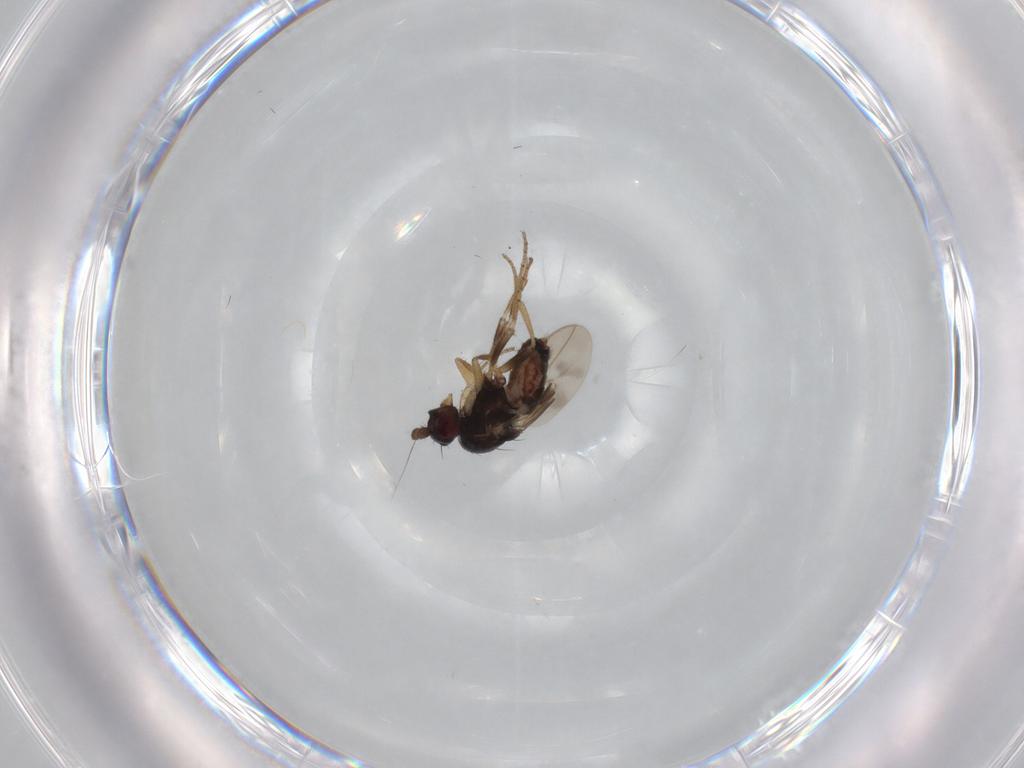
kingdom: Animalia
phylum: Arthropoda
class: Insecta
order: Diptera
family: Sphaeroceridae
